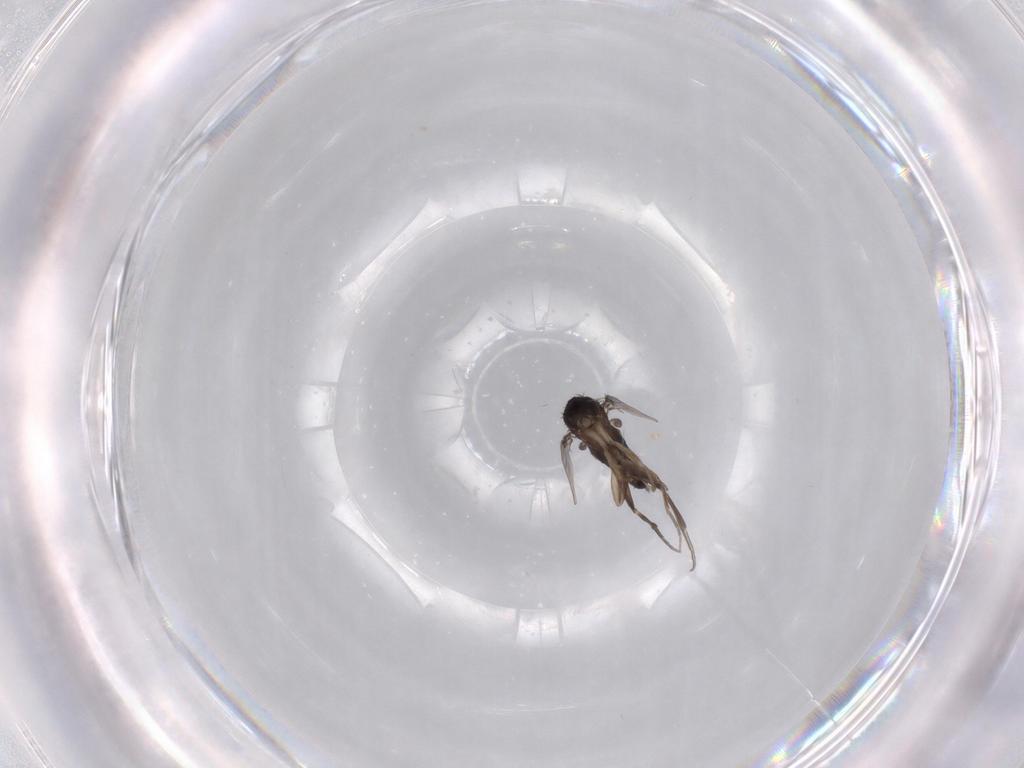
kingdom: Animalia
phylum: Arthropoda
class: Insecta
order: Diptera
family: Phoridae
